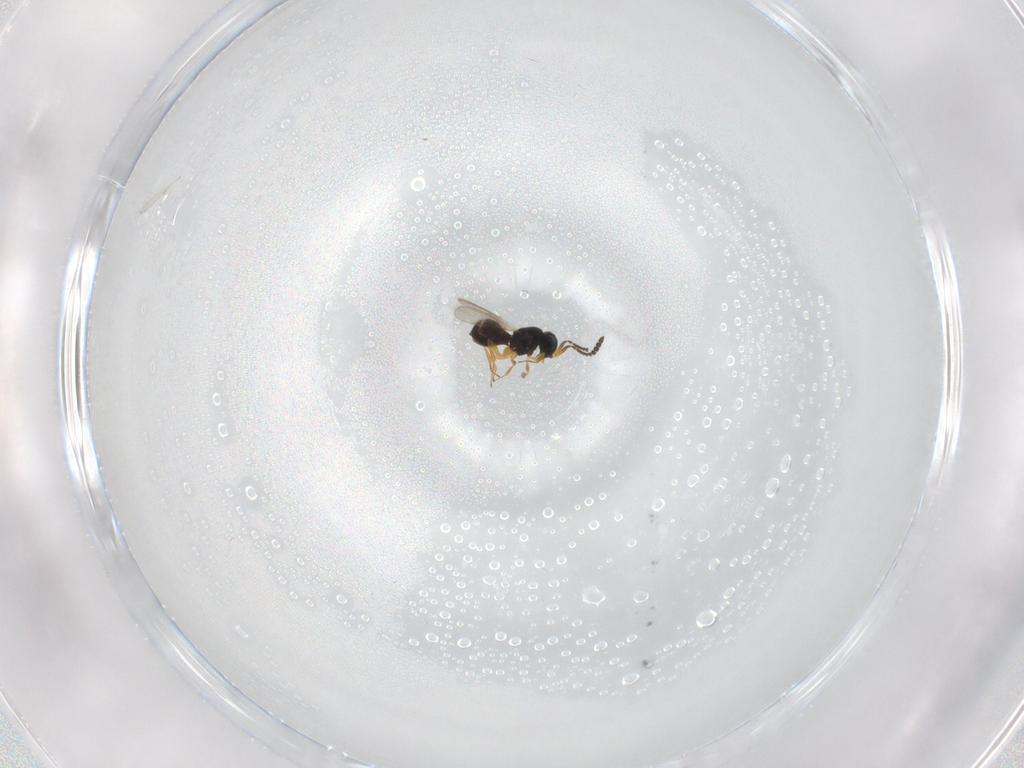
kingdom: Animalia
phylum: Arthropoda
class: Insecta
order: Hymenoptera
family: Scelionidae
